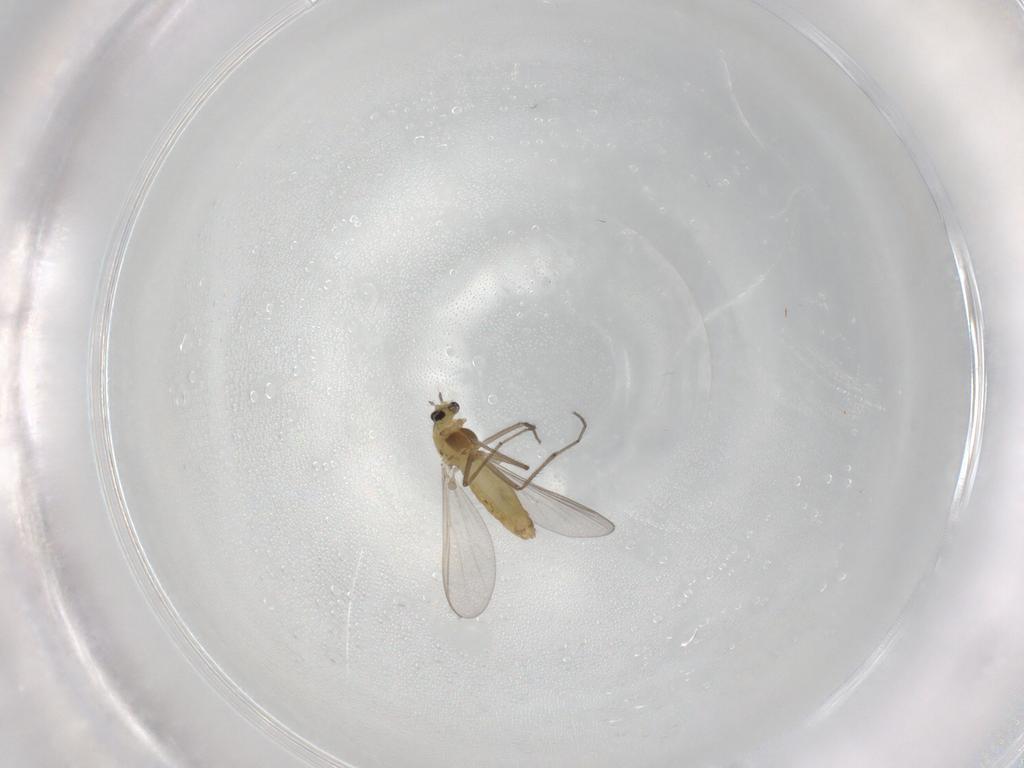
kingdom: Animalia
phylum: Arthropoda
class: Insecta
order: Diptera
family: Chironomidae
